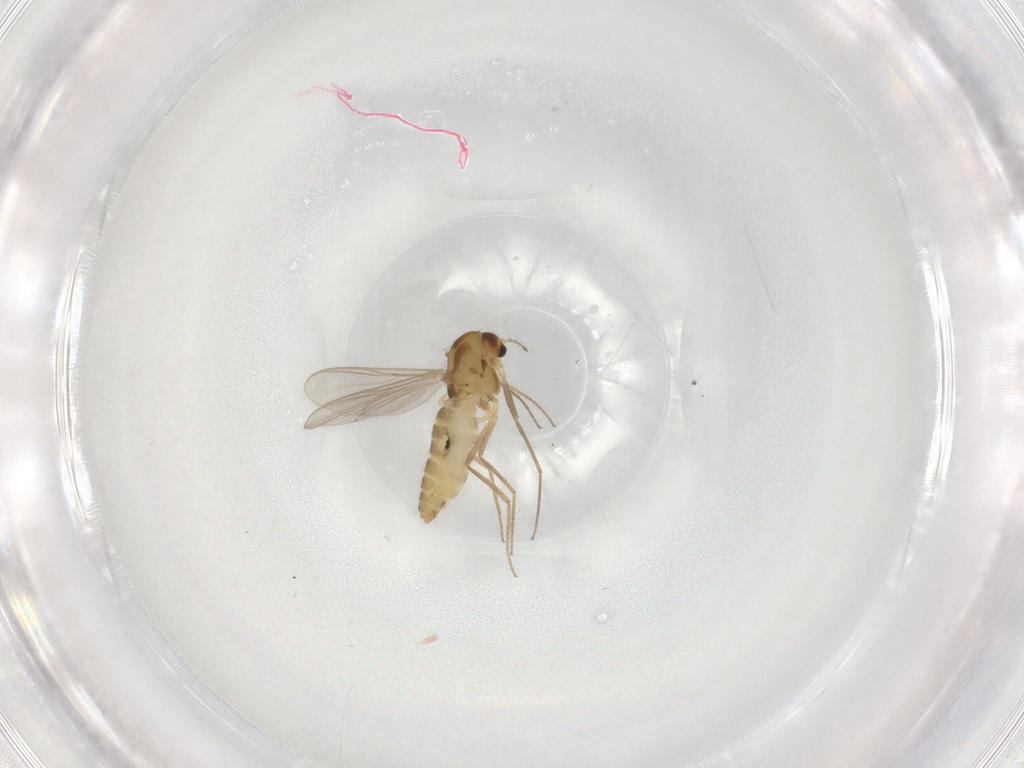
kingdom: Animalia
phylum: Arthropoda
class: Insecta
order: Diptera
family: Chironomidae
